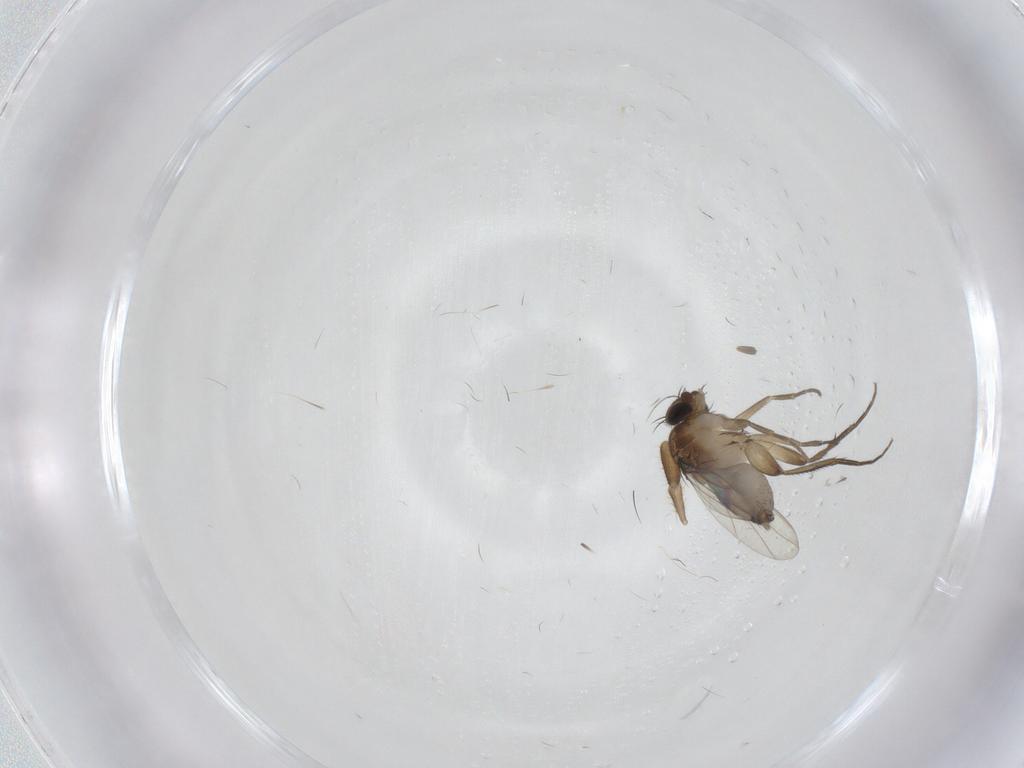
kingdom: Animalia
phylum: Arthropoda
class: Insecta
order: Diptera
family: Phoridae
